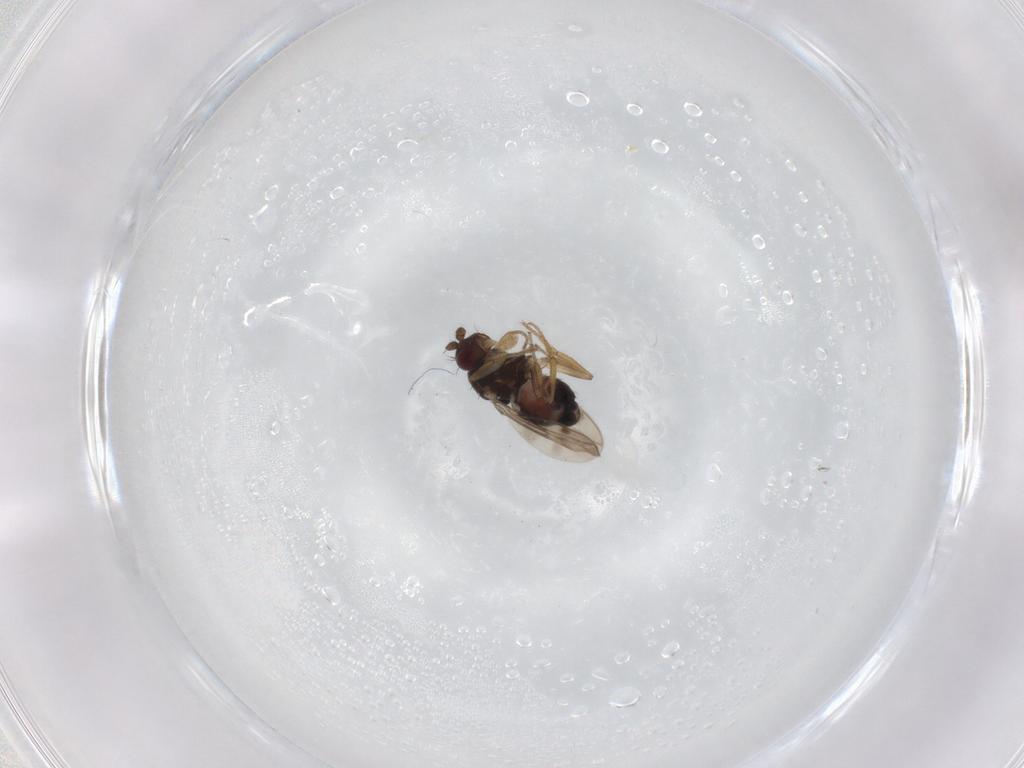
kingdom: Animalia
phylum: Arthropoda
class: Insecta
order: Diptera
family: Sphaeroceridae
